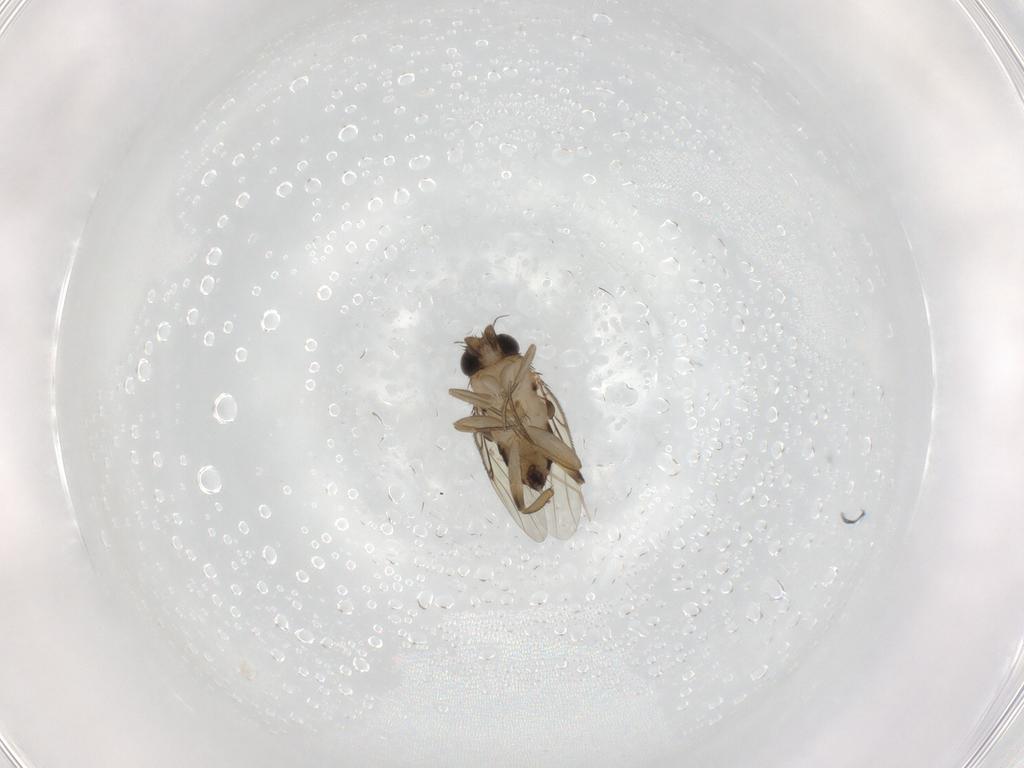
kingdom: Animalia
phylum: Arthropoda
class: Insecta
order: Diptera
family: Phoridae
